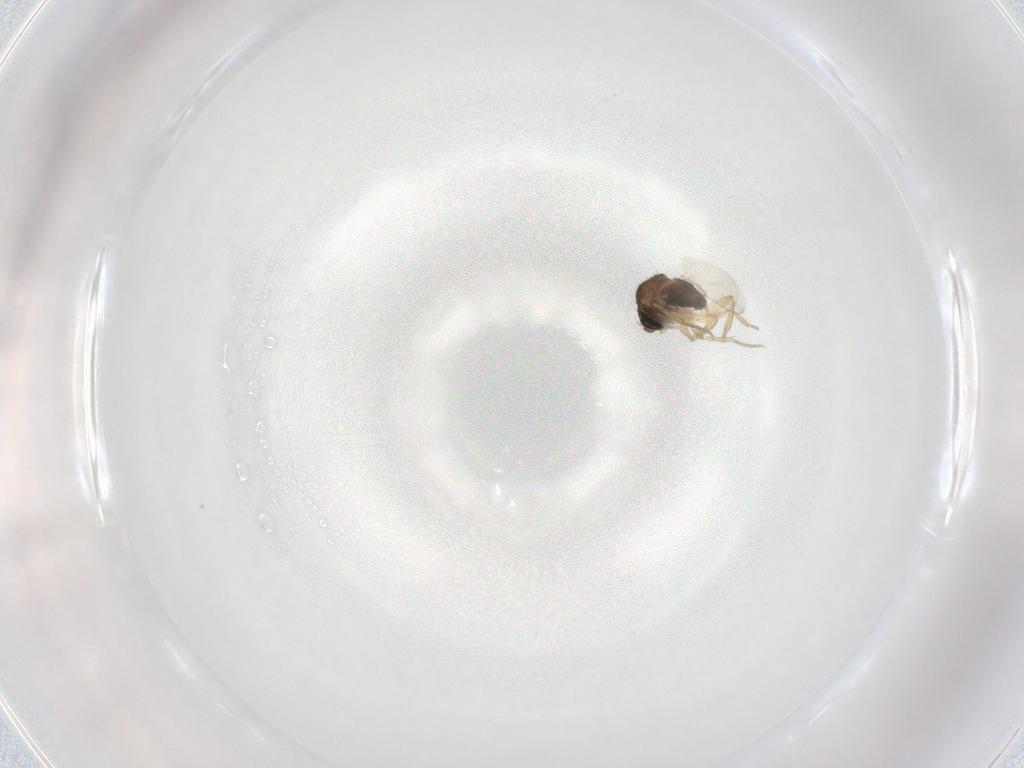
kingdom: Animalia
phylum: Arthropoda
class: Insecta
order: Diptera
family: Phoridae
